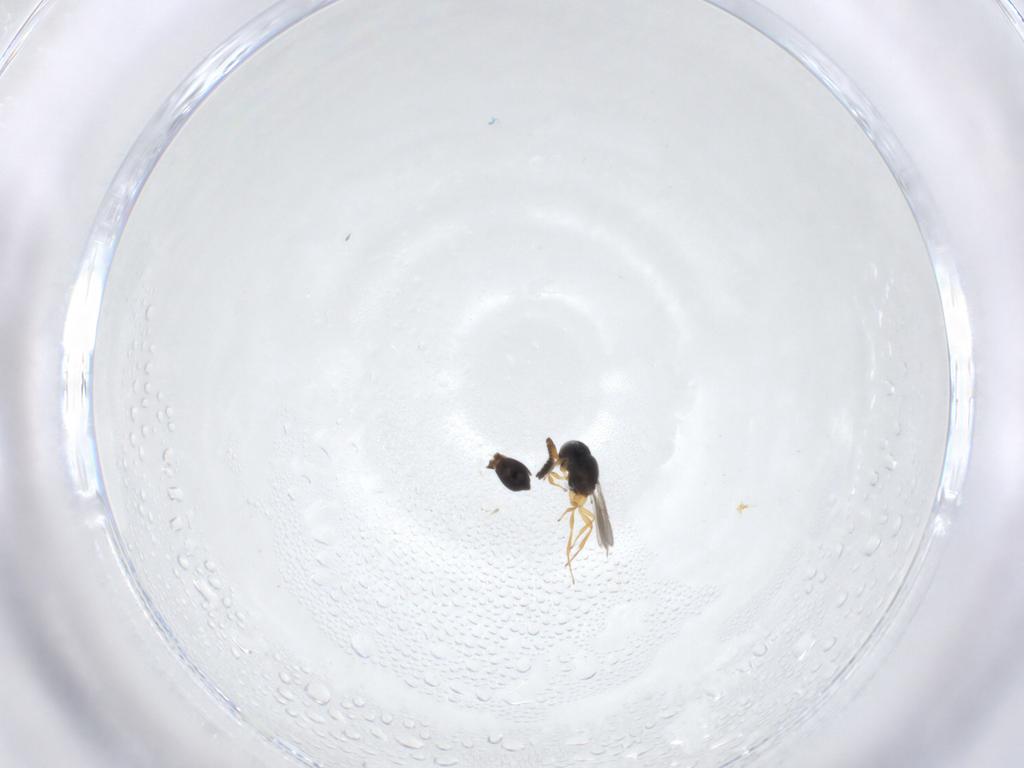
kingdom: Animalia
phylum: Arthropoda
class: Insecta
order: Hymenoptera
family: Scelionidae
